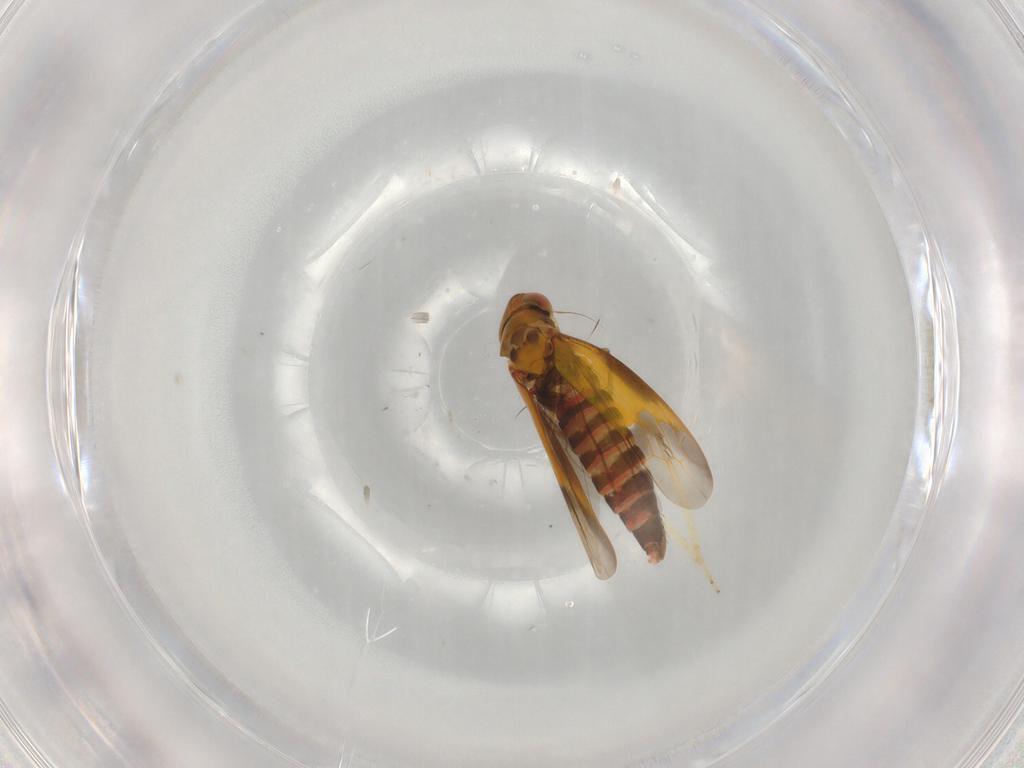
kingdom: Animalia
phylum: Arthropoda
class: Insecta
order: Hemiptera
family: Cicadellidae
